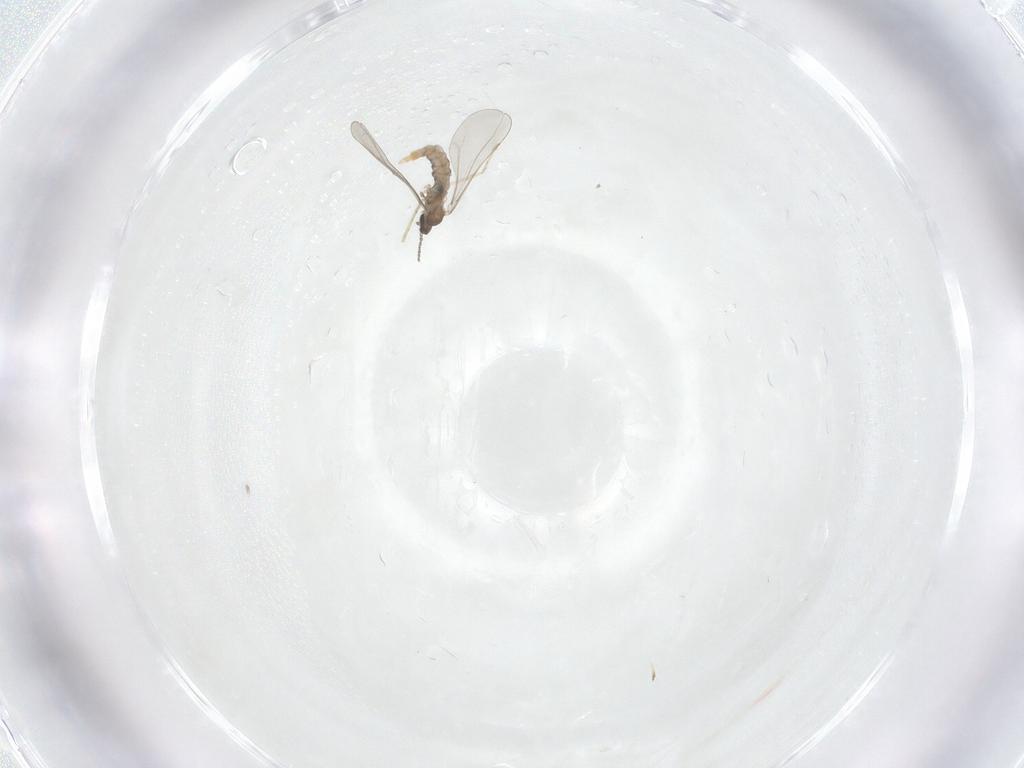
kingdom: Animalia
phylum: Arthropoda
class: Insecta
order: Diptera
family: Cecidomyiidae
